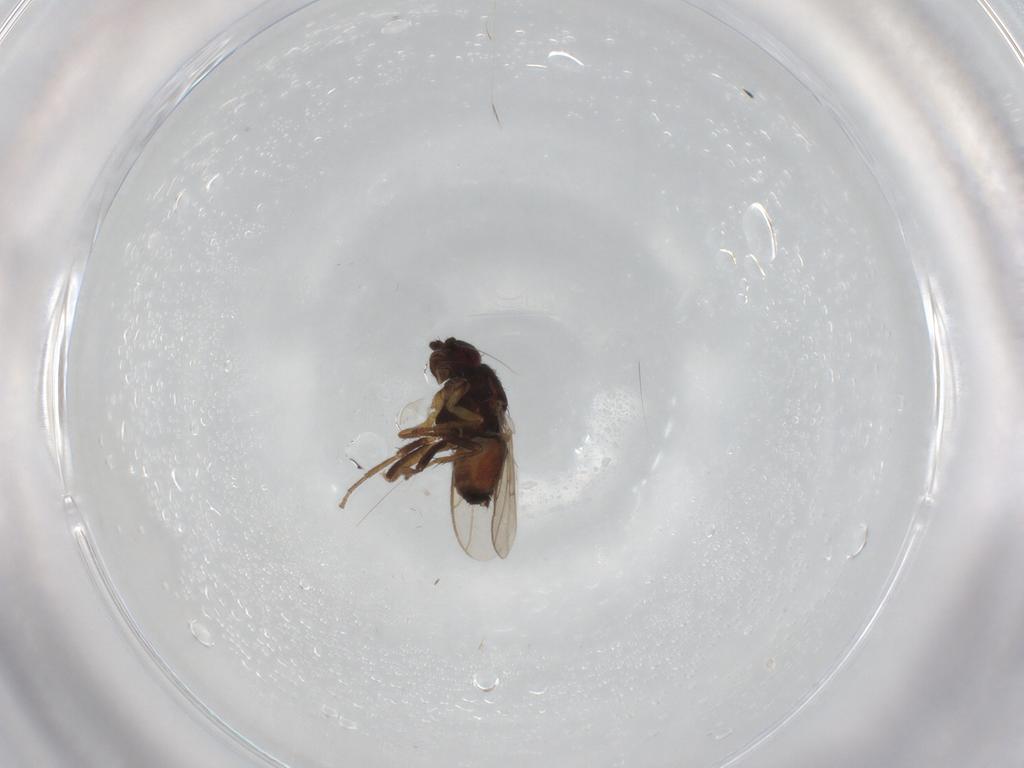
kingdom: Animalia
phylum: Arthropoda
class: Insecta
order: Diptera
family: Sphaeroceridae
